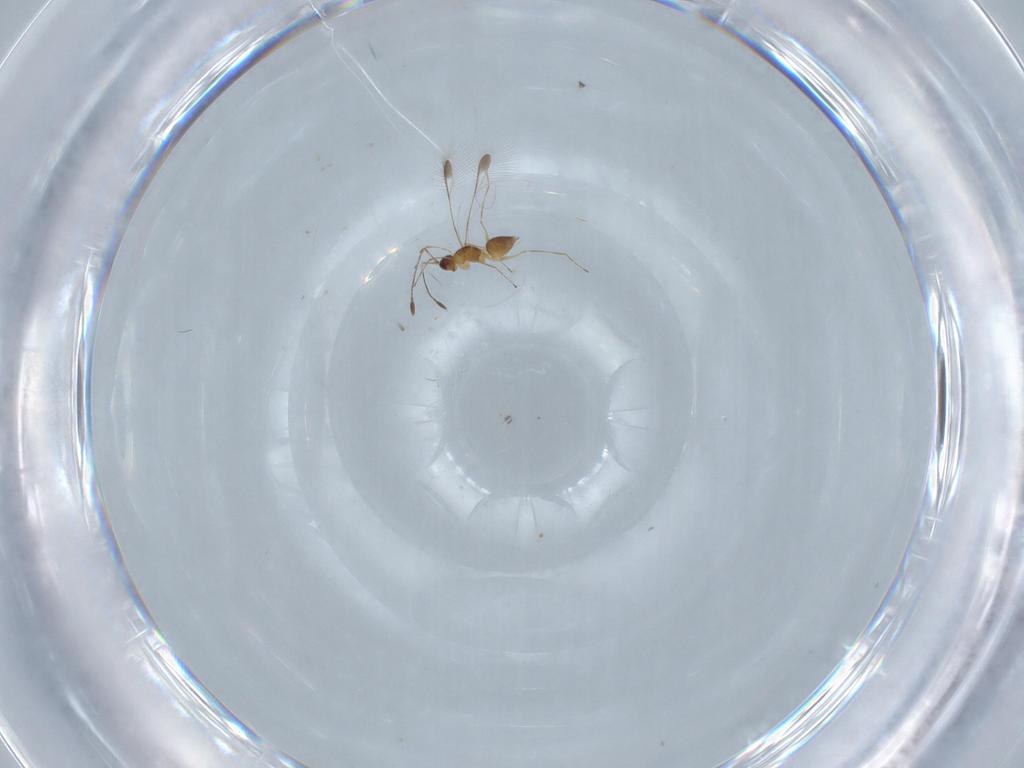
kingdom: Animalia
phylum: Arthropoda
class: Insecta
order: Hymenoptera
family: Mymaridae
